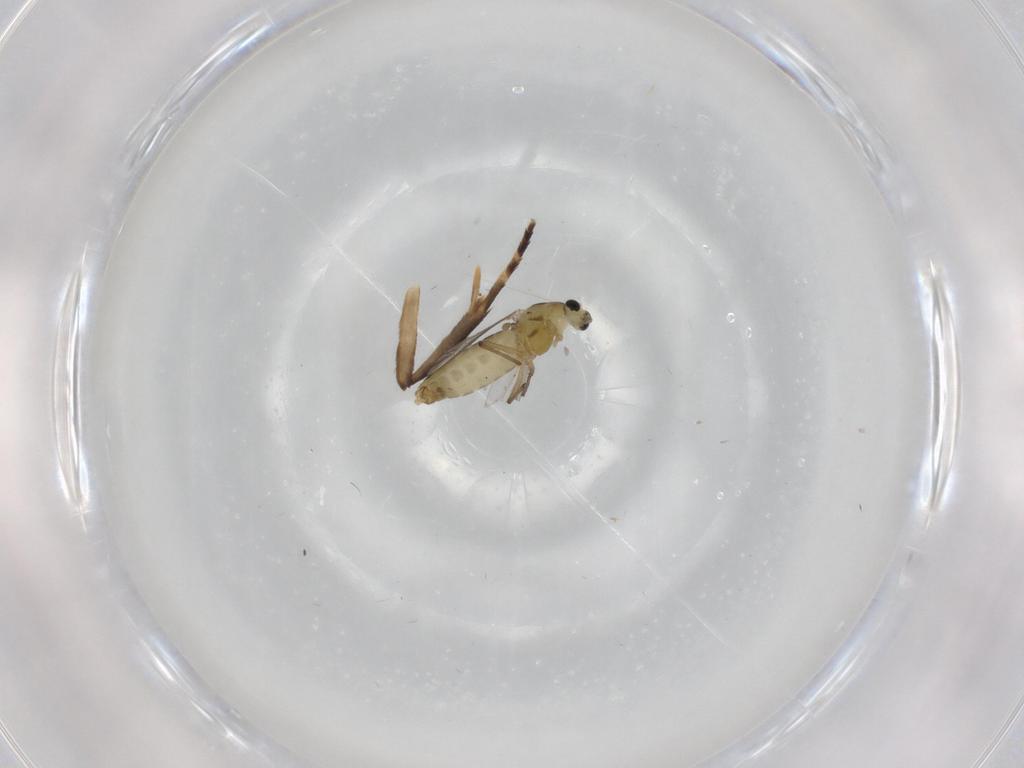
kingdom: Animalia
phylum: Arthropoda
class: Insecta
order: Diptera
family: Chironomidae
